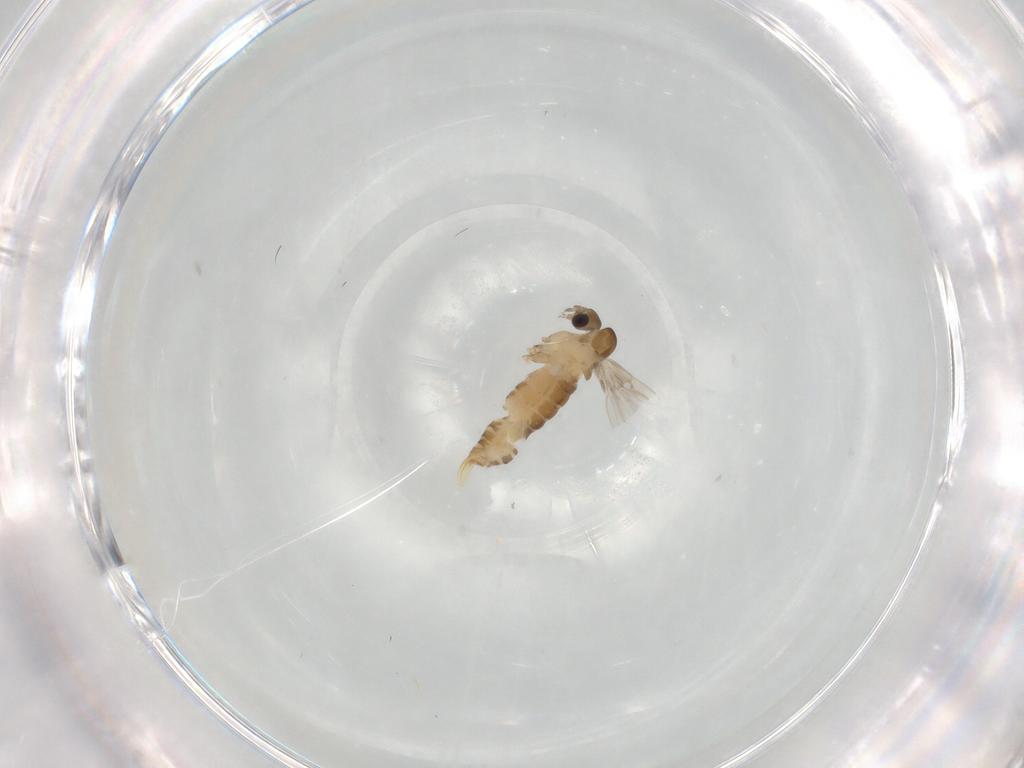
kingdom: Animalia
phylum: Arthropoda
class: Insecta
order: Diptera
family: Psychodidae
